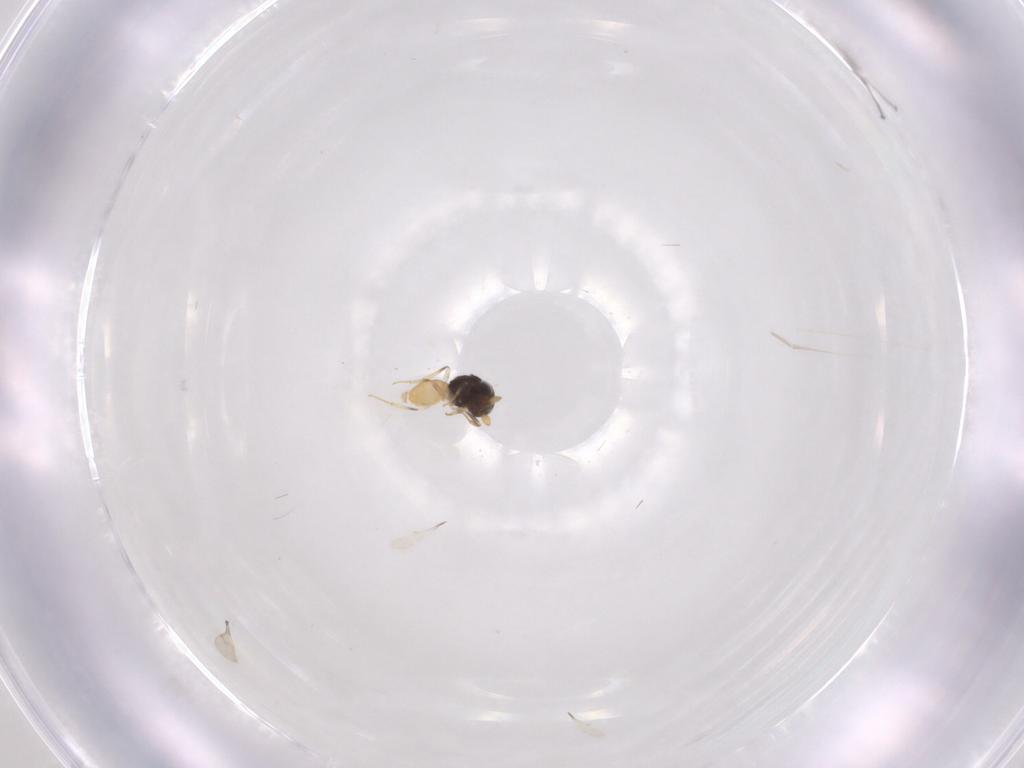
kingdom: Animalia
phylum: Arthropoda
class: Insecta
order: Hymenoptera
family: Scelionidae
